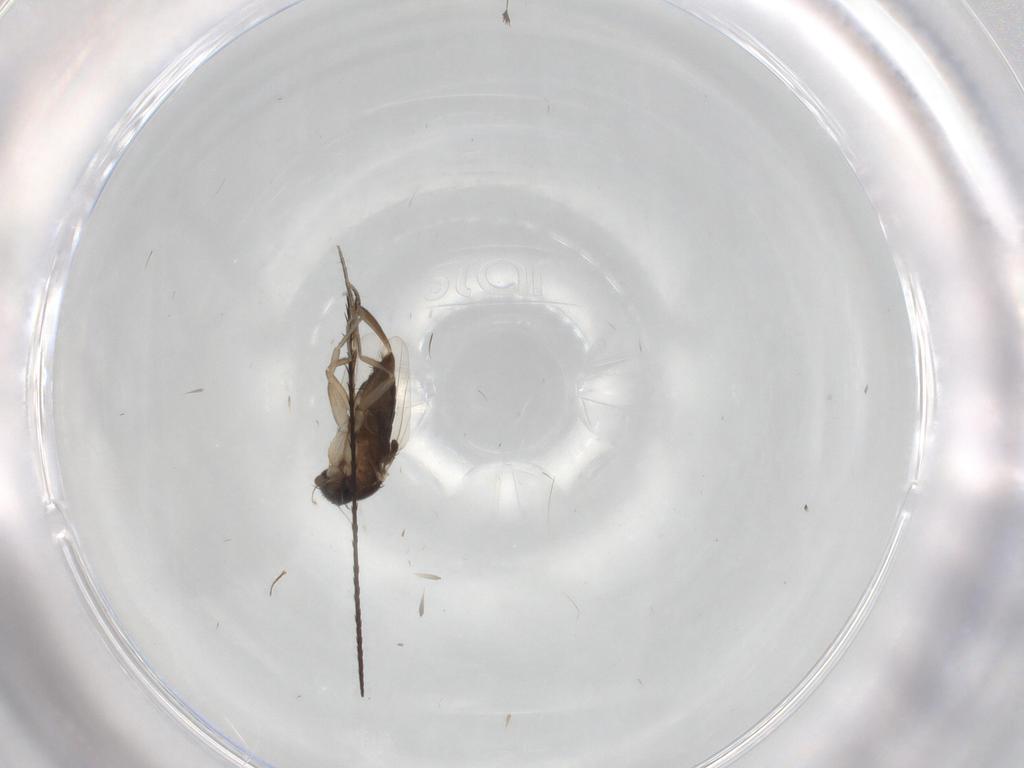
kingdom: Animalia
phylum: Arthropoda
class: Insecta
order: Diptera
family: Phoridae
